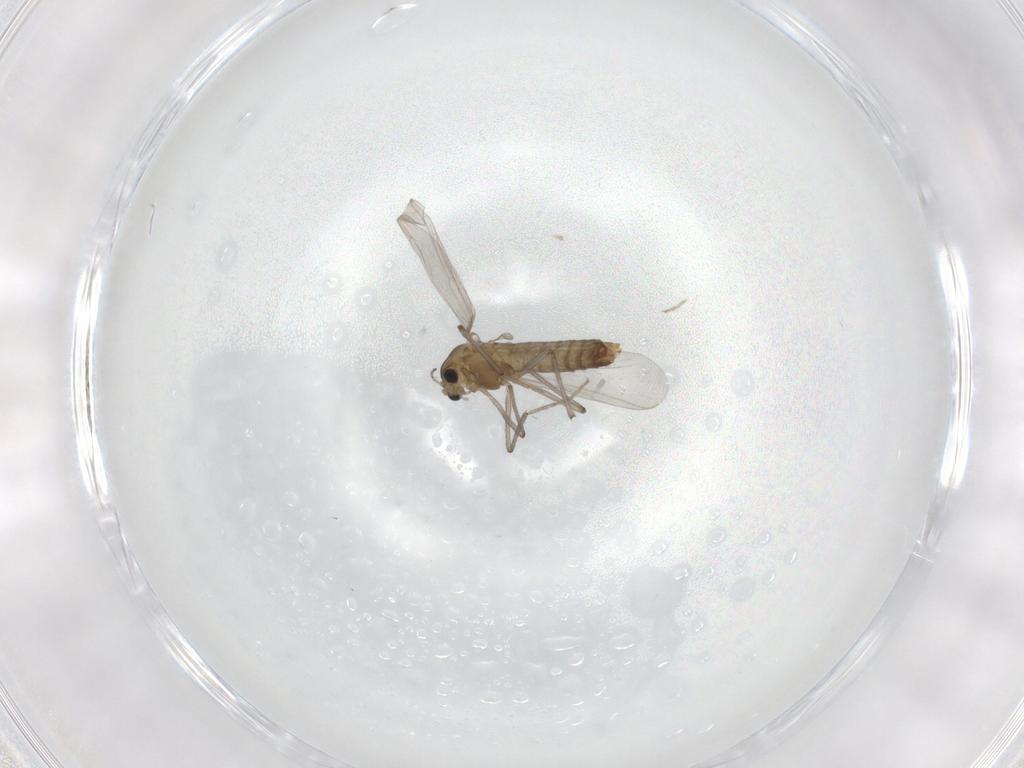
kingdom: Animalia
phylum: Arthropoda
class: Insecta
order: Diptera
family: Chironomidae
